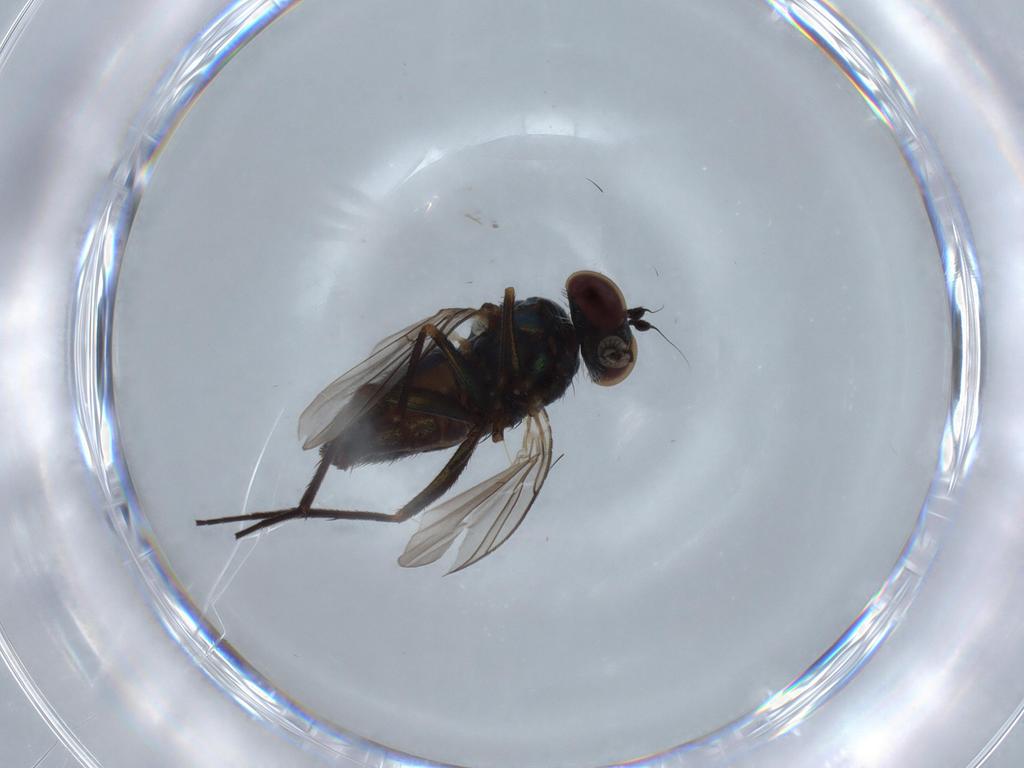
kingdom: Animalia
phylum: Arthropoda
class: Insecta
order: Diptera
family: Dolichopodidae
